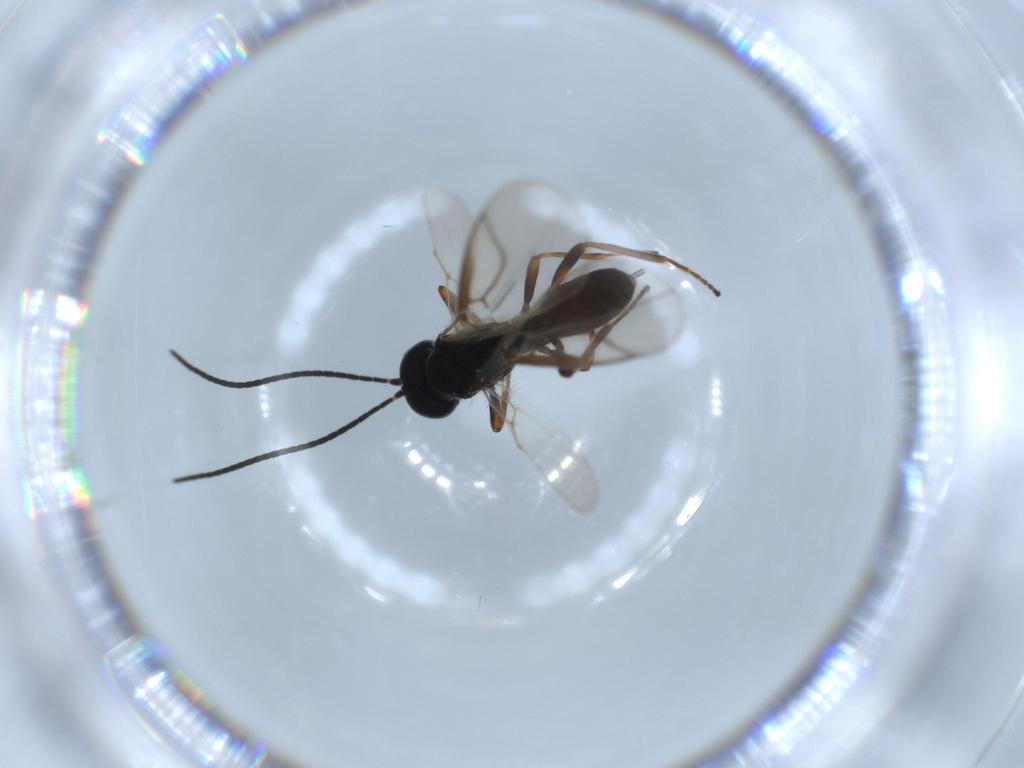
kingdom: Animalia
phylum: Arthropoda
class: Insecta
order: Hymenoptera
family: Braconidae
